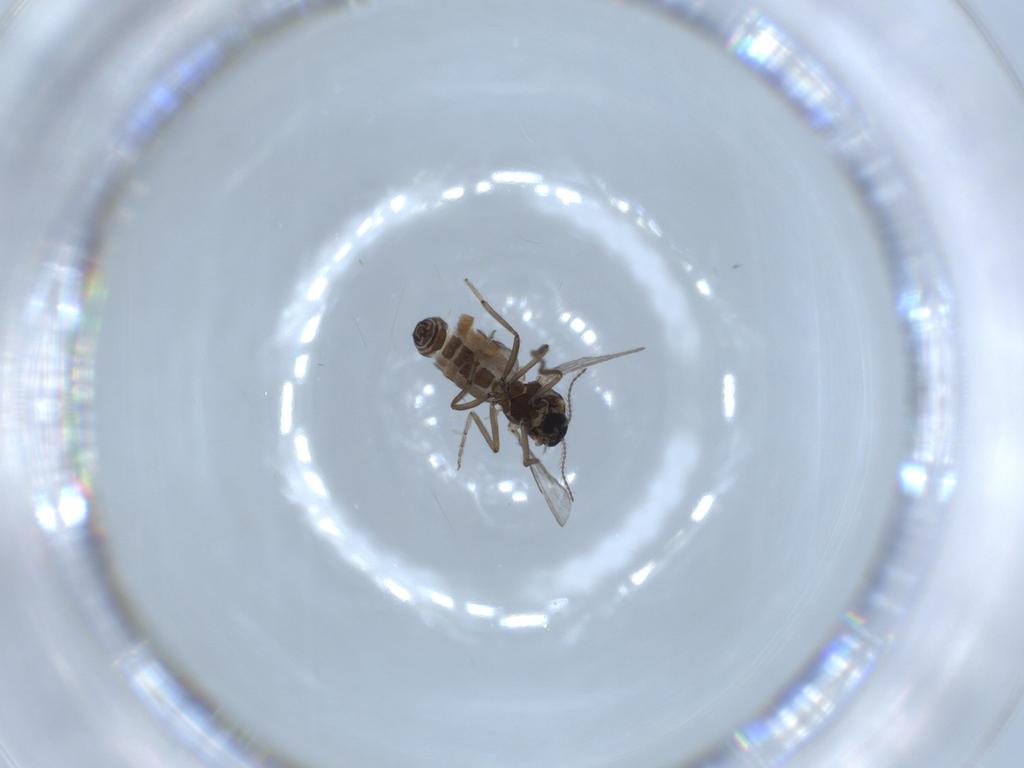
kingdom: Animalia
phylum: Arthropoda
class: Insecta
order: Diptera
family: Ceratopogonidae
